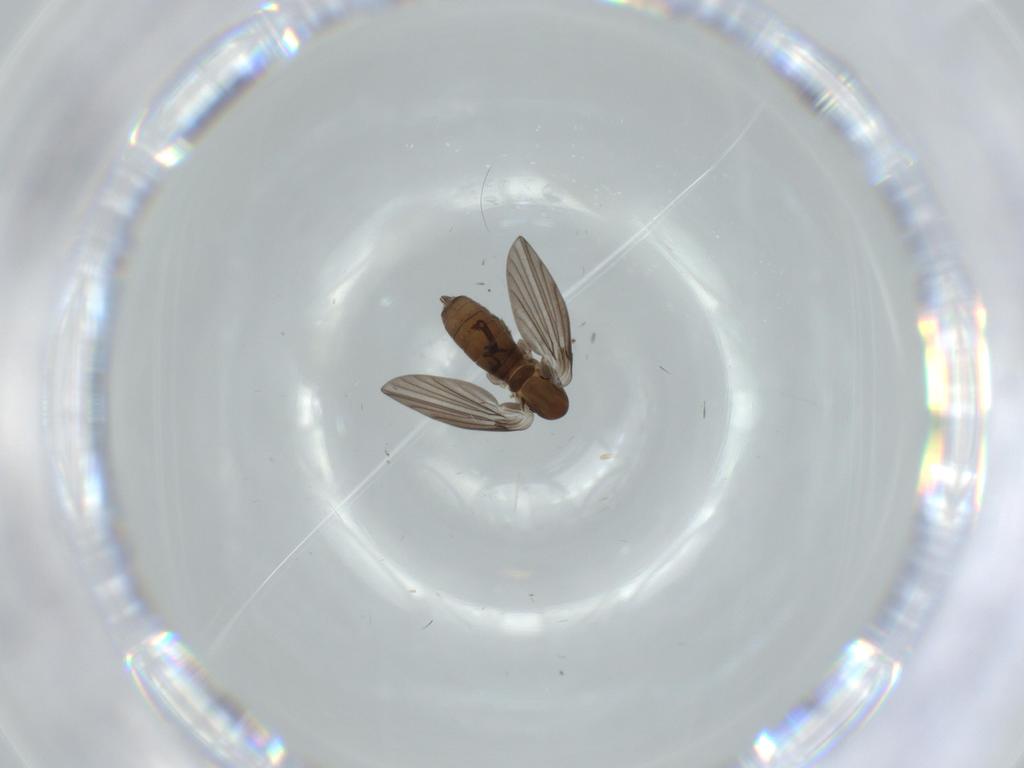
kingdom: Animalia
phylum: Arthropoda
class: Insecta
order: Diptera
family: Psychodidae
